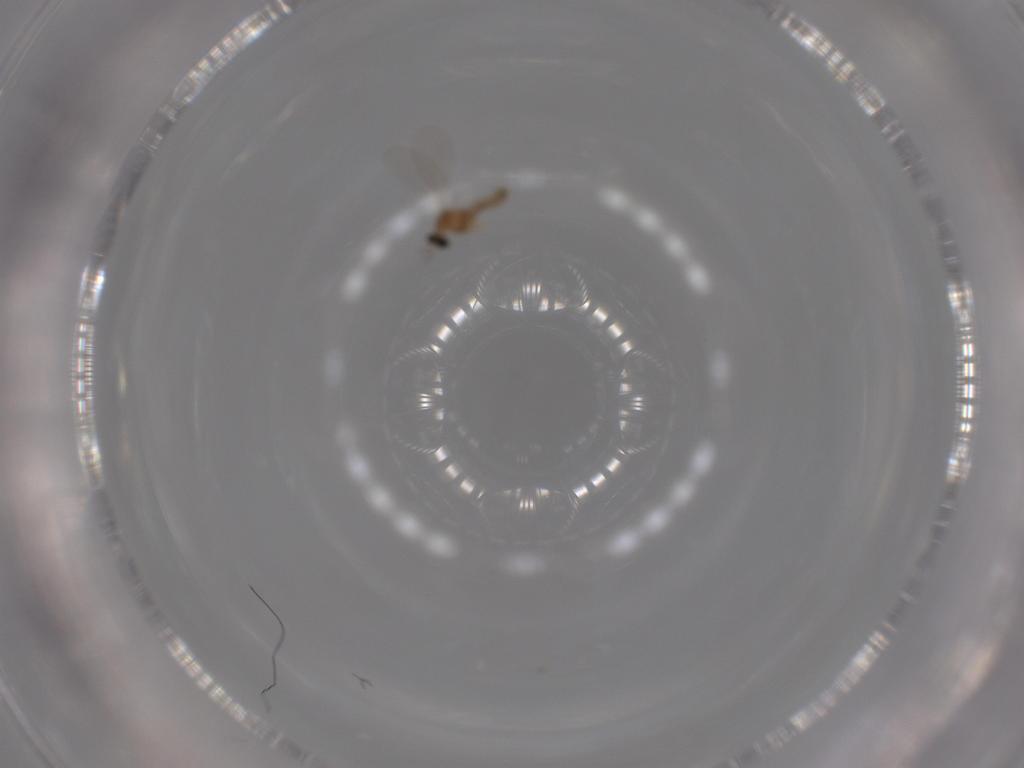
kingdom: Animalia
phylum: Arthropoda
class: Insecta
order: Diptera
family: Cecidomyiidae
